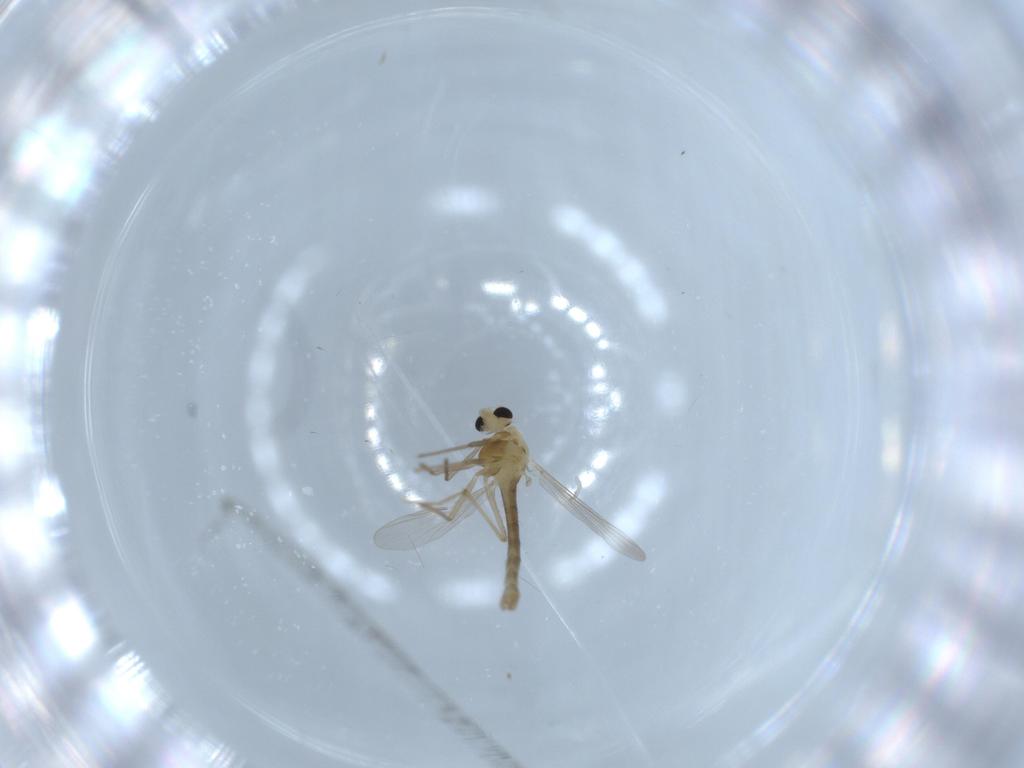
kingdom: Animalia
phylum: Arthropoda
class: Insecta
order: Diptera
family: Chironomidae
